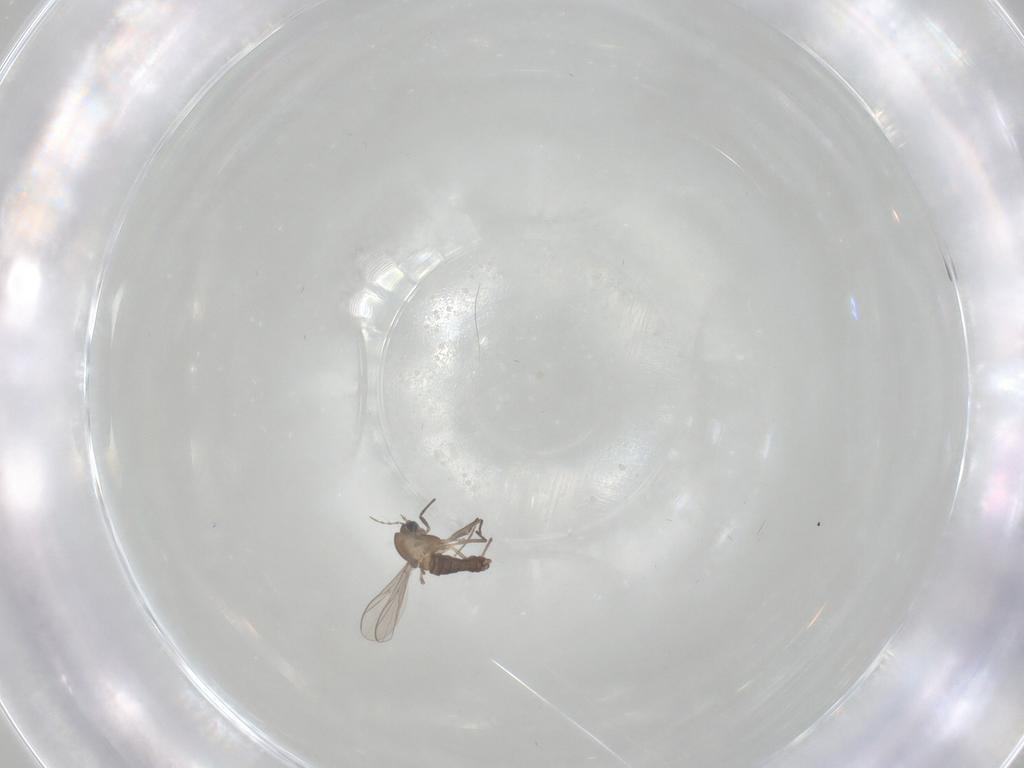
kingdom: Animalia
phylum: Arthropoda
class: Insecta
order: Diptera
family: Chironomidae
